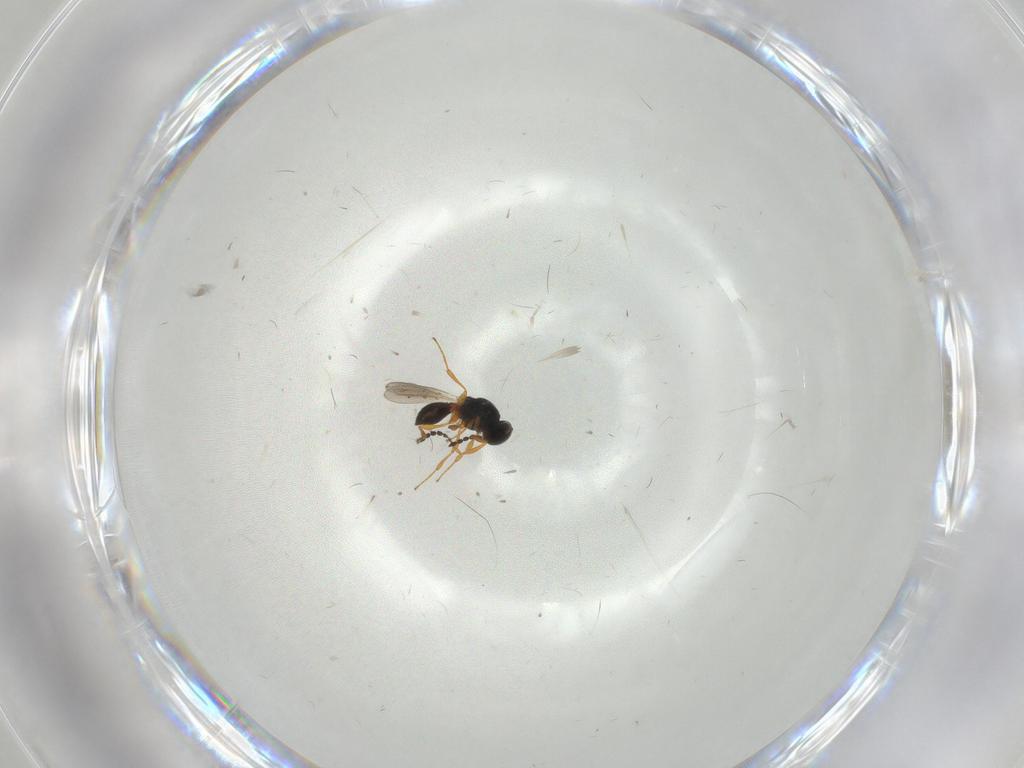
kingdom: Animalia
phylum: Arthropoda
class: Insecta
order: Hymenoptera
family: Platygastridae
